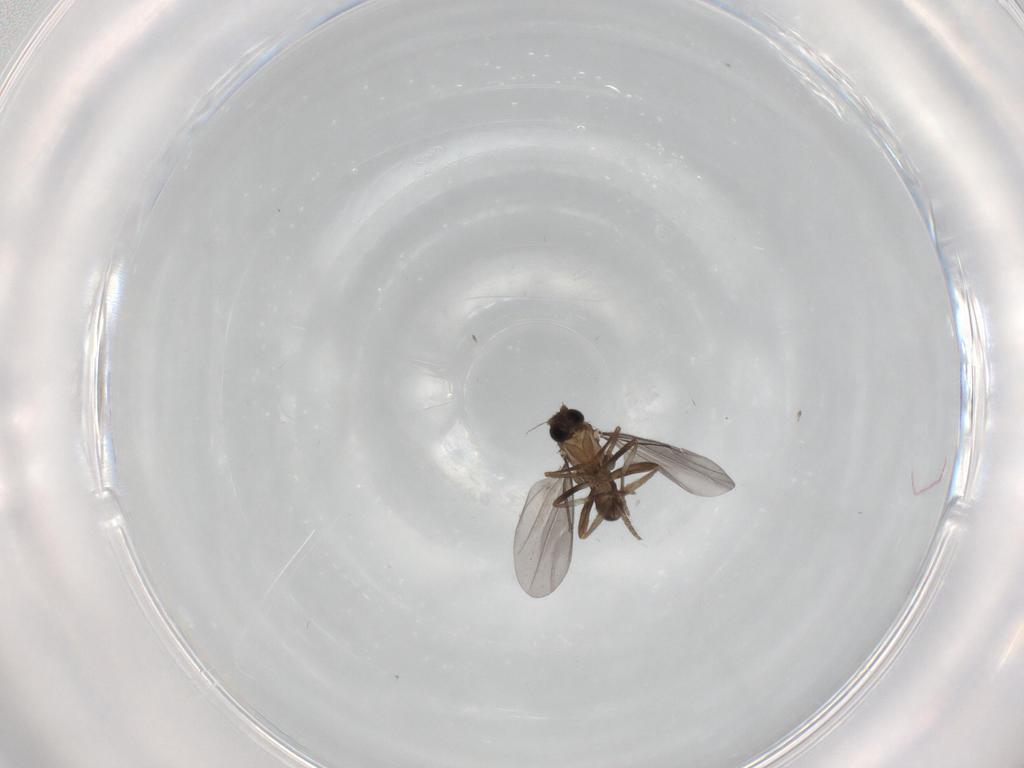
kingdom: Animalia
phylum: Arthropoda
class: Insecta
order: Diptera
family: Phoridae
